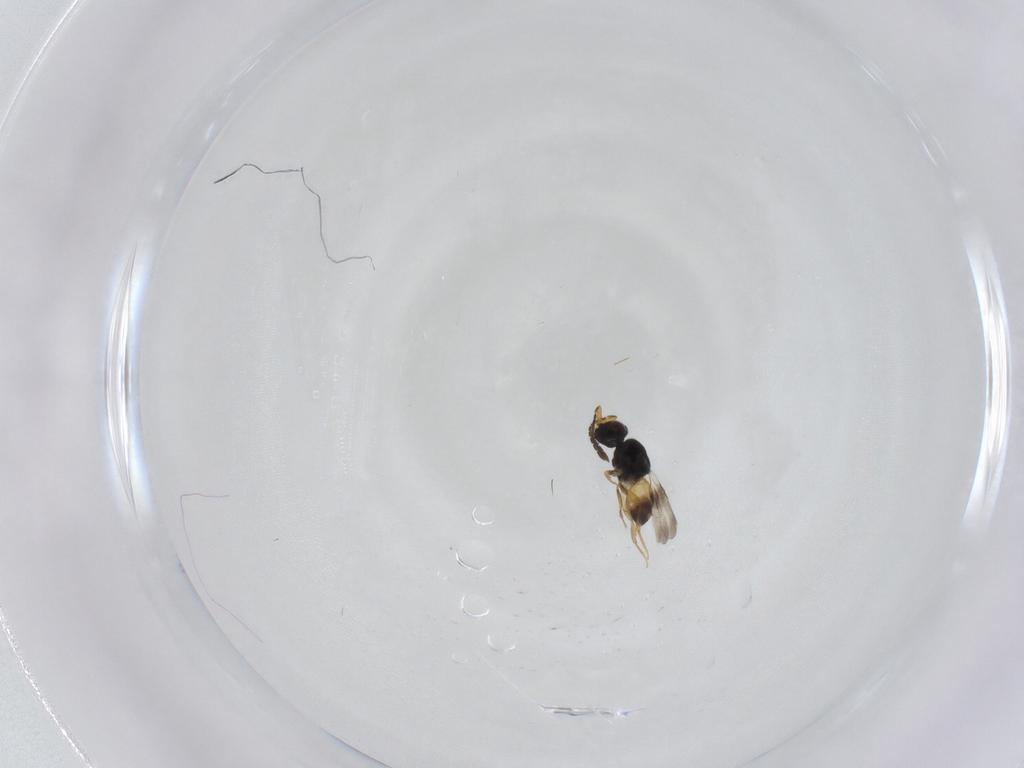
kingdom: Animalia
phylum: Arthropoda
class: Insecta
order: Hymenoptera
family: Ceraphronidae
